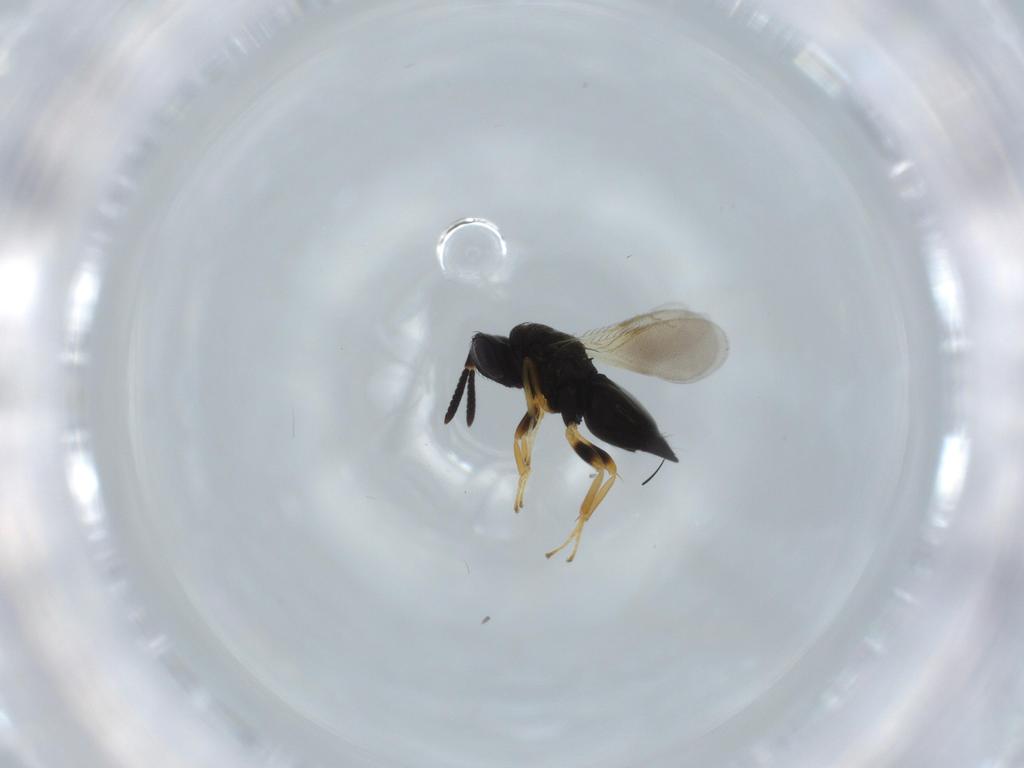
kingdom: Animalia
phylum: Arthropoda
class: Insecta
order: Hymenoptera
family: Pteromalidae
